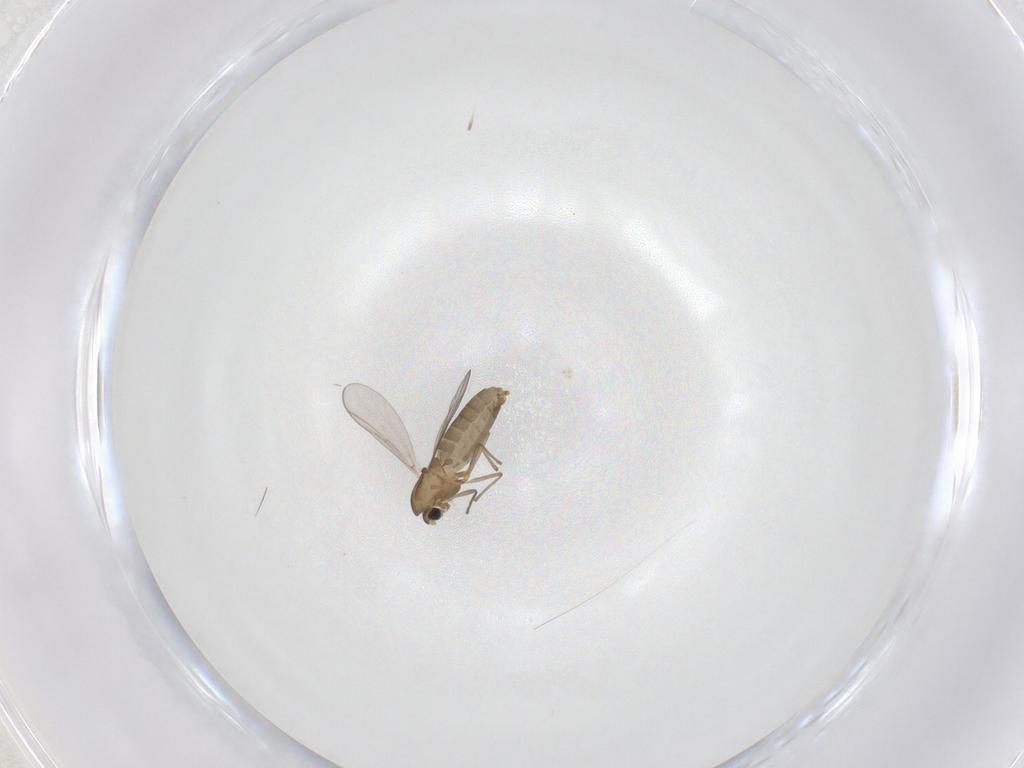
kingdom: Animalia
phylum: Arthropoda
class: Insecta
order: Diptera
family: Chironomidae
